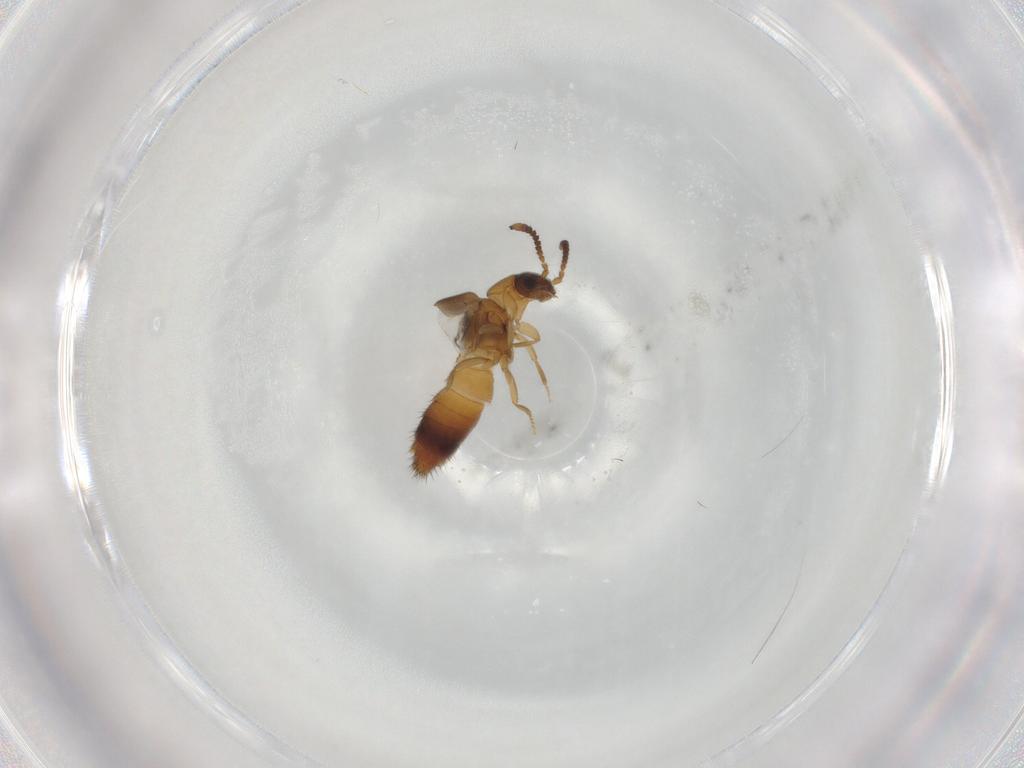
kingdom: Animalia
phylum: Arthropoda
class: Insecta
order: Coleoptera
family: Staphylinidae
